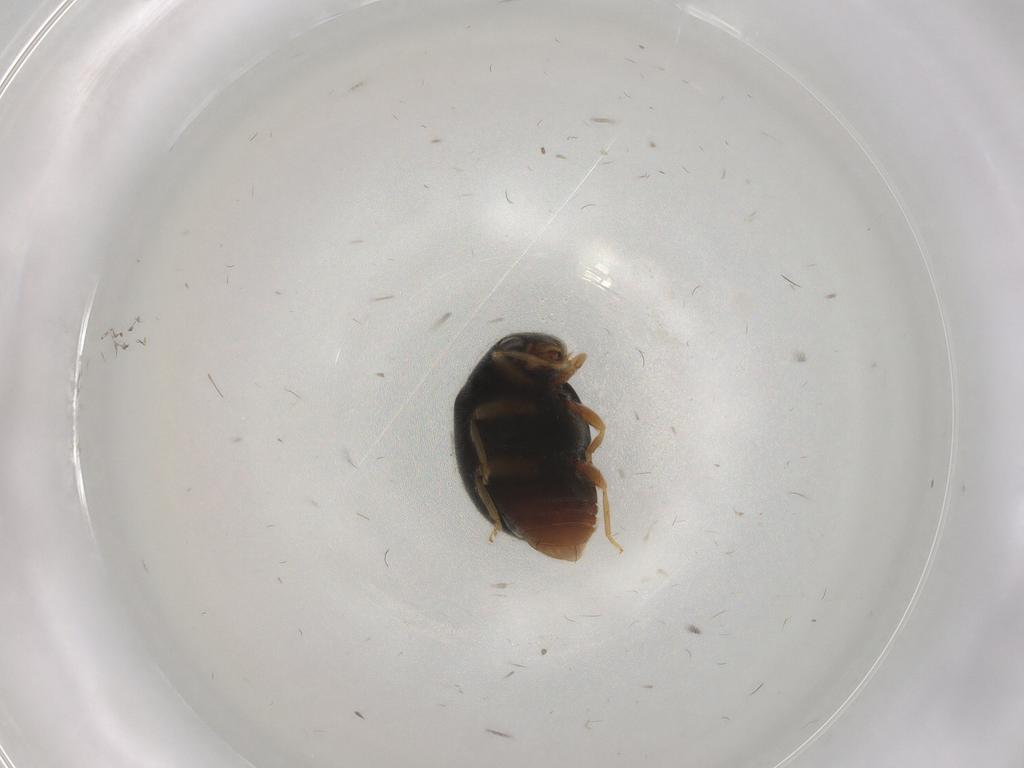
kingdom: Animalia
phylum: Arthropoda
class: Insecta
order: Coleoptera
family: Coccinellidae
